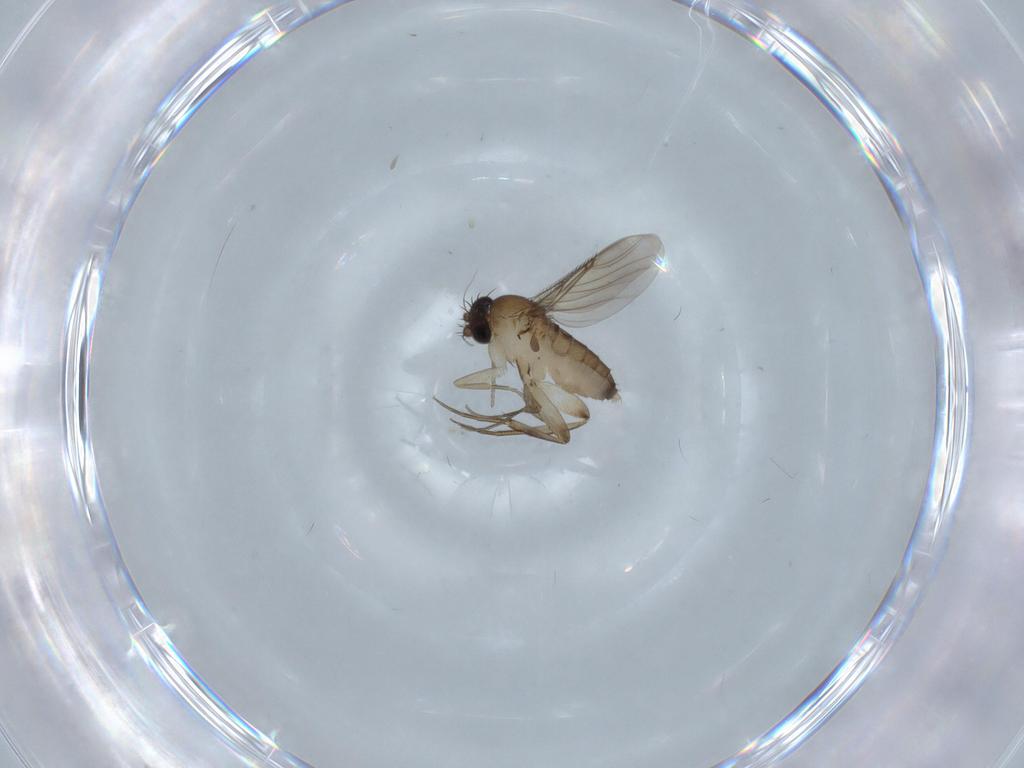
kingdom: Animalia
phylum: Arthropoda
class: Insecta
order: Diptera
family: Phoridae
